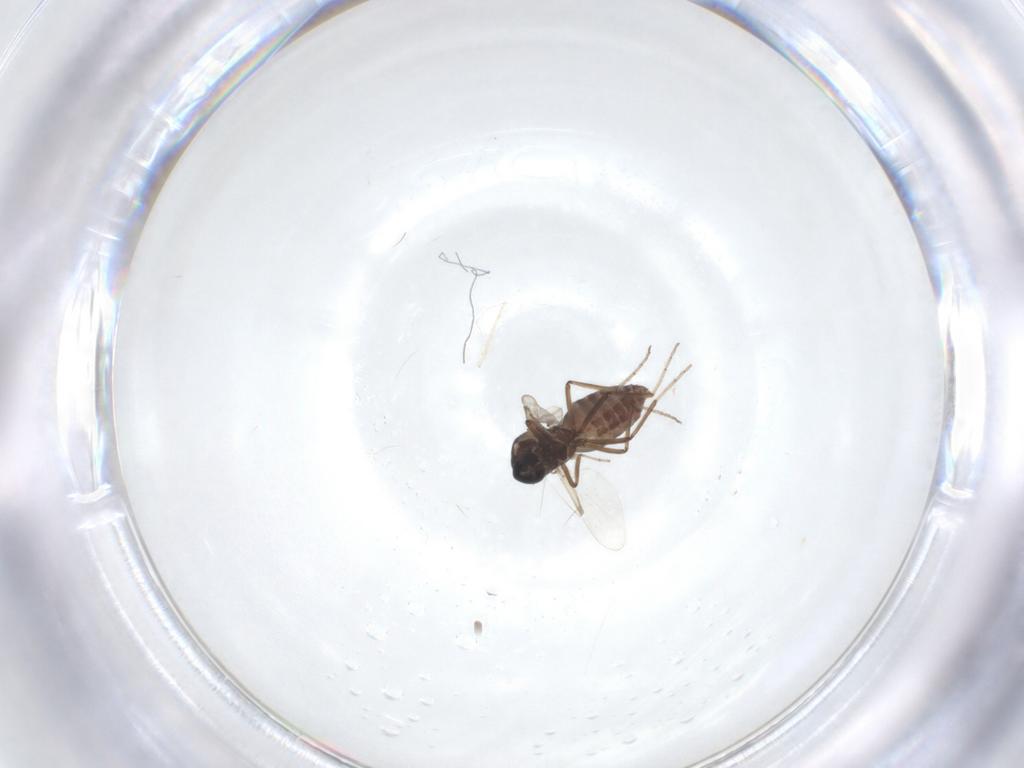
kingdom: Animalia
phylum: Arthropoda
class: Insecta
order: Diptera
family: Ceratopogonidae
